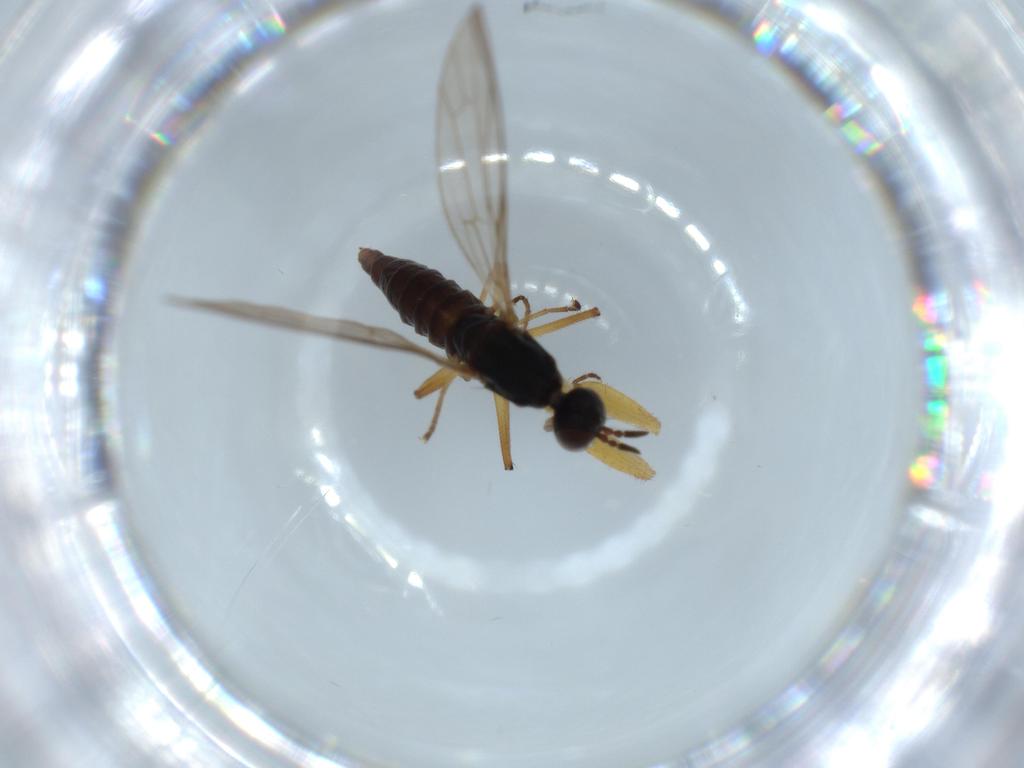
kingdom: Animalia
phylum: Arthropoda
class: Insecta
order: Diptera
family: Empididae
